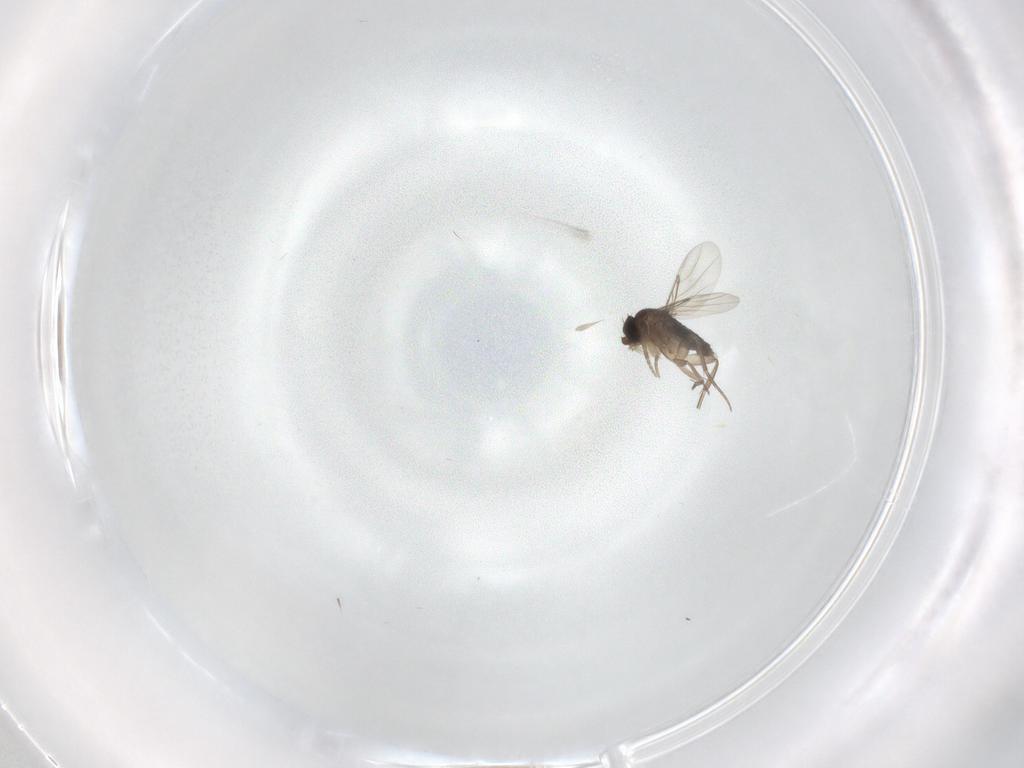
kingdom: Animalia
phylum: Arthropoda
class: Insecta
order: Diptera
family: Phoridae
